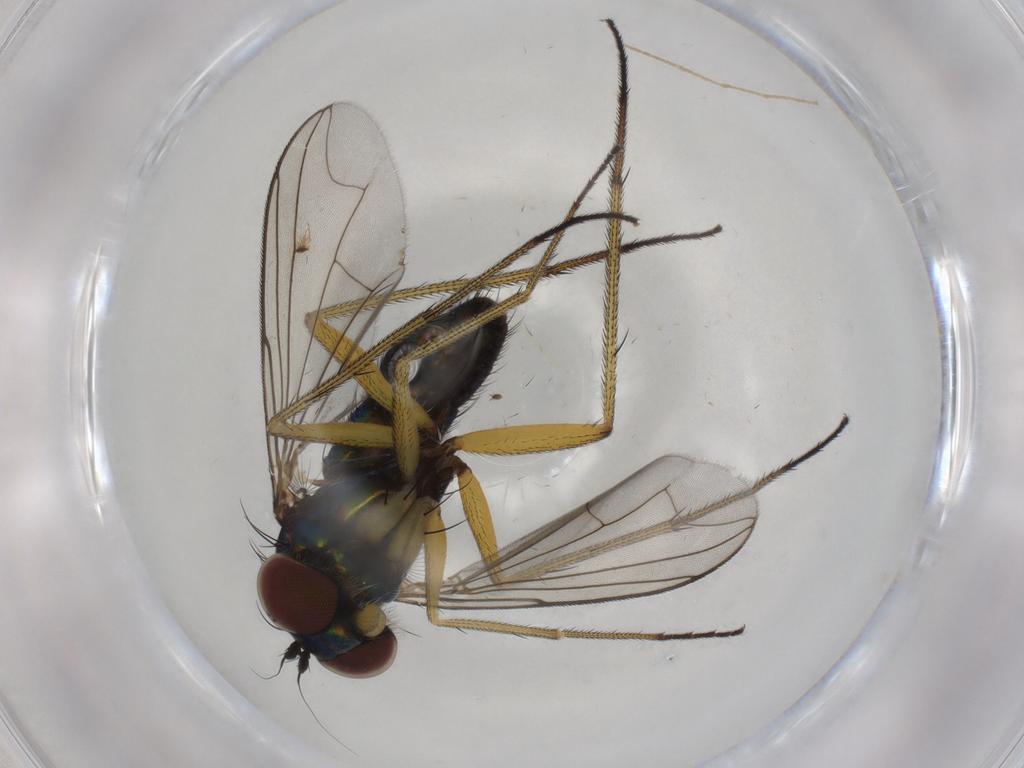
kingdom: Animalia
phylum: Arthropoda
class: Insecta
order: Diptera
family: Dolichopodidae
